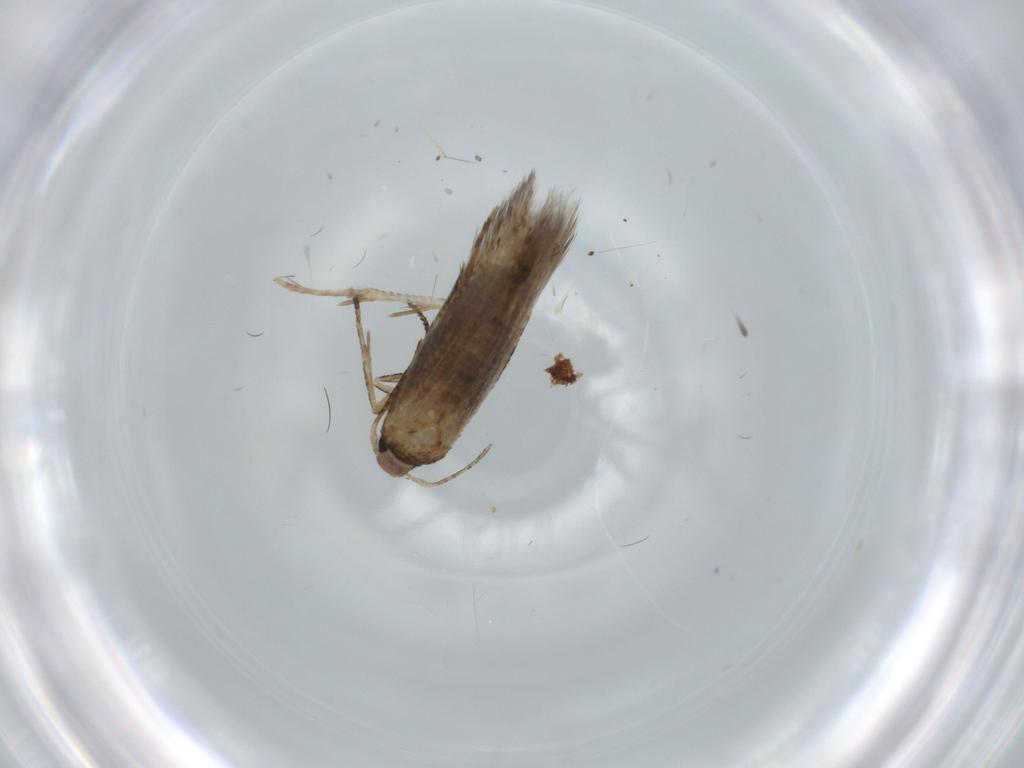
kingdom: Animalia
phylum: Arthropoda
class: Insecta
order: Lepidoptera
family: Cosmopterigidae
